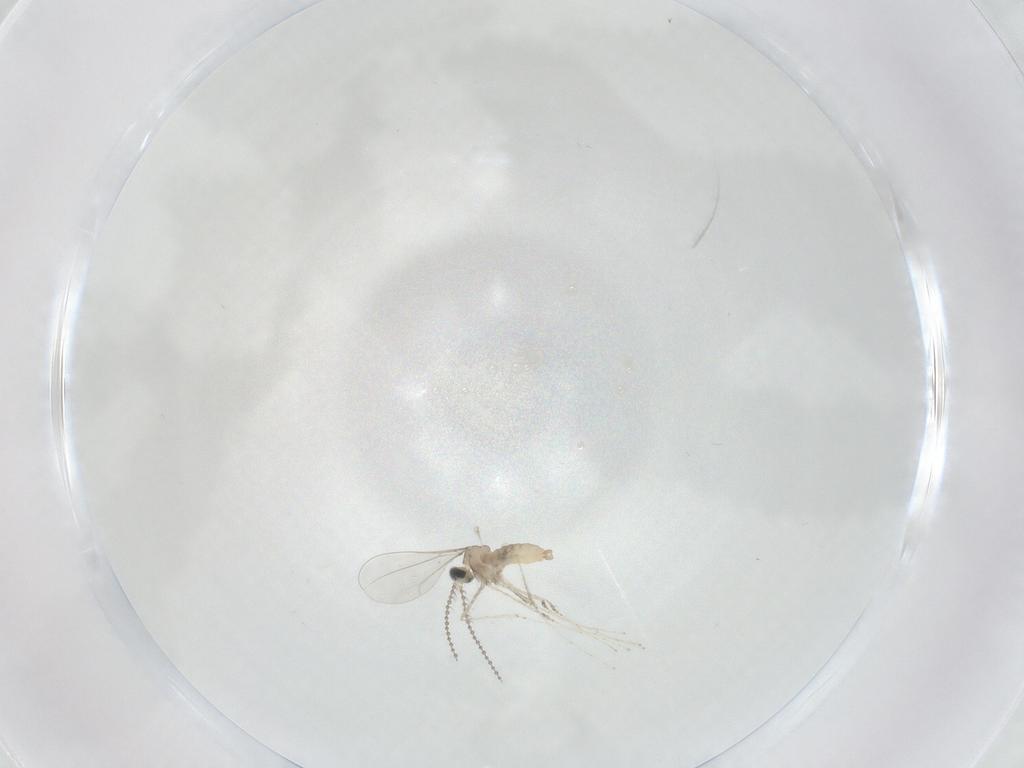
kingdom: Animalia
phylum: Arthropoda
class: Insecta
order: Diptera
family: Cecidomyiidae
